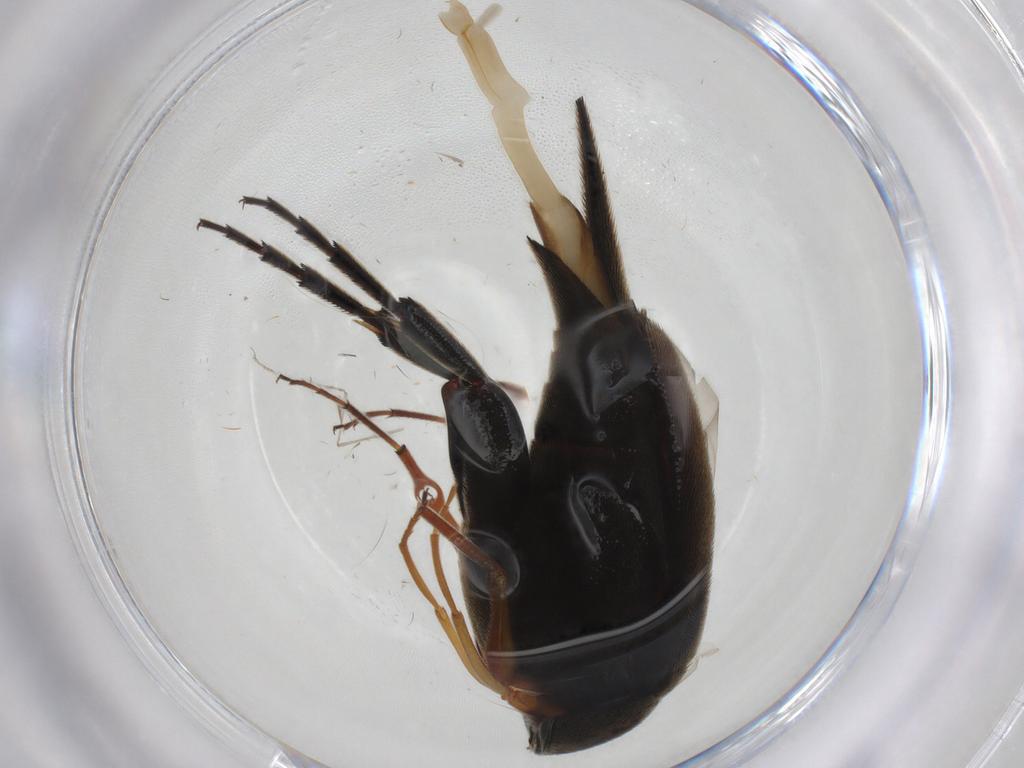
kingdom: Animalia
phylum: Arthropoda
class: Insecta
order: Coleoptera
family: Mordellidae
